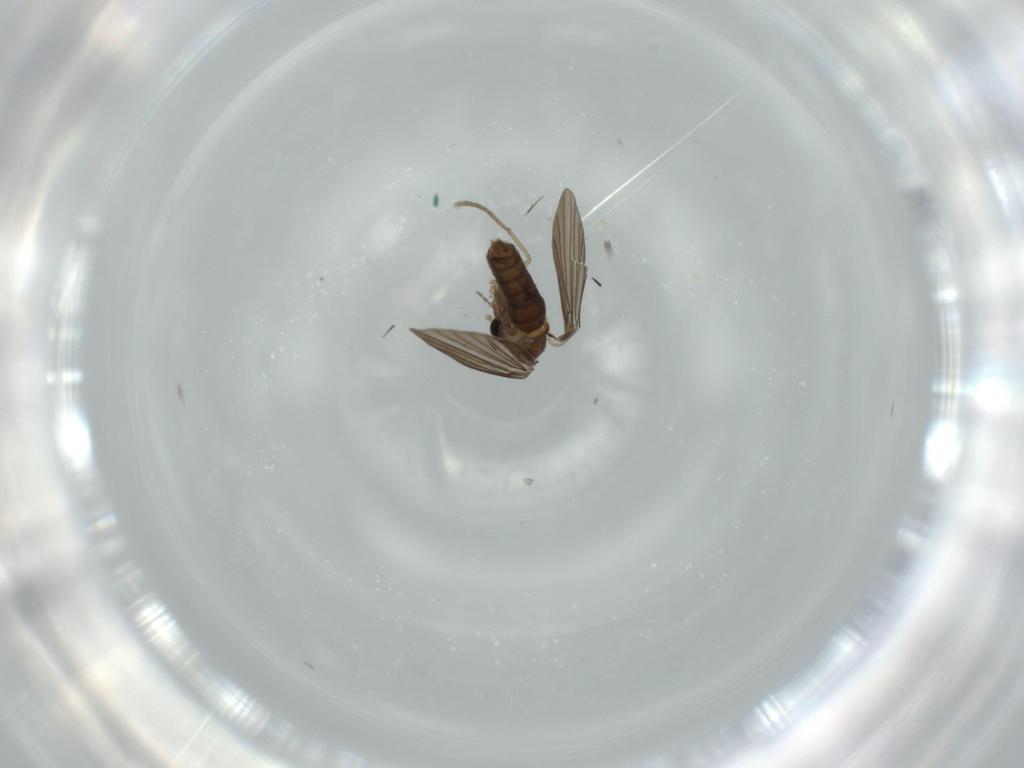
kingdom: Animalia
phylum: Arthropoda
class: Insecta
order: Diptera
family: Psychodidae
